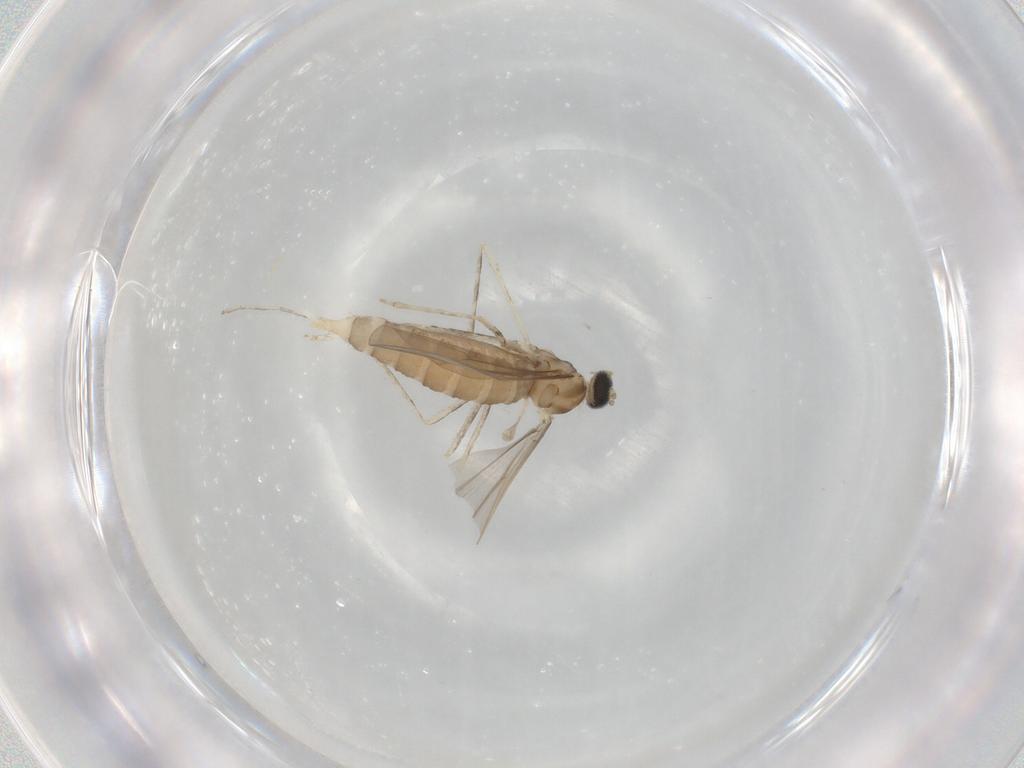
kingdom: Animalia
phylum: Arthropoda
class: Insecta
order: Diptera
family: Cecidomyiidae
